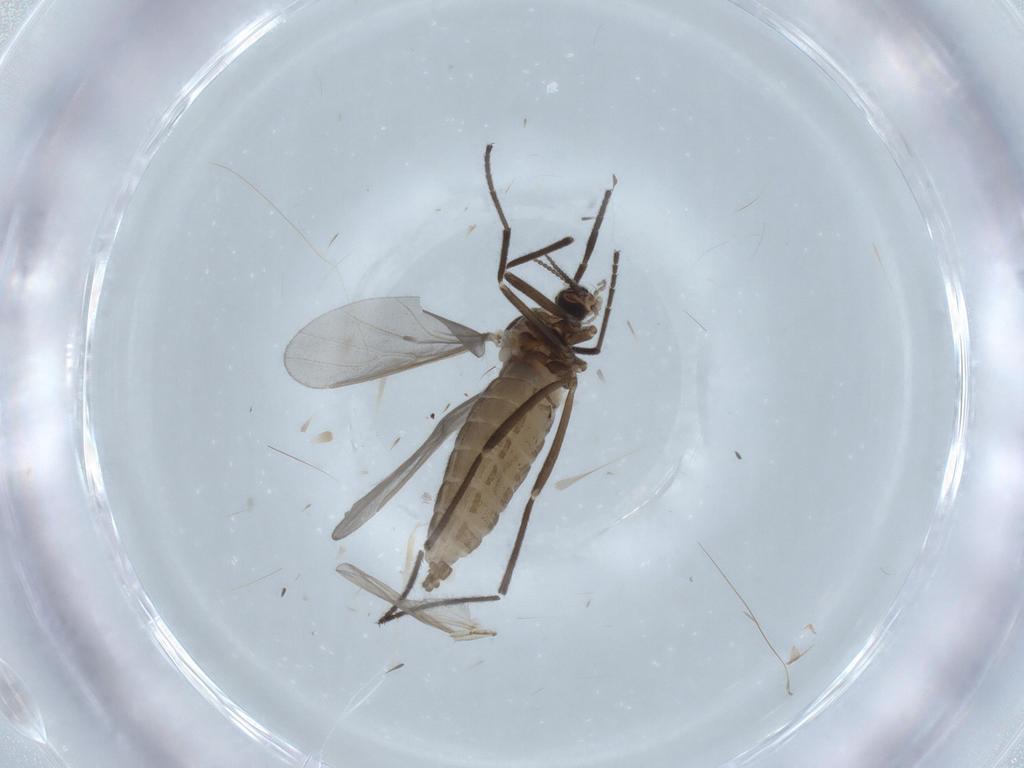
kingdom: Animalia
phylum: Arthropoda
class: Insecta
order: Diptera
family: Cecidomyiidae
